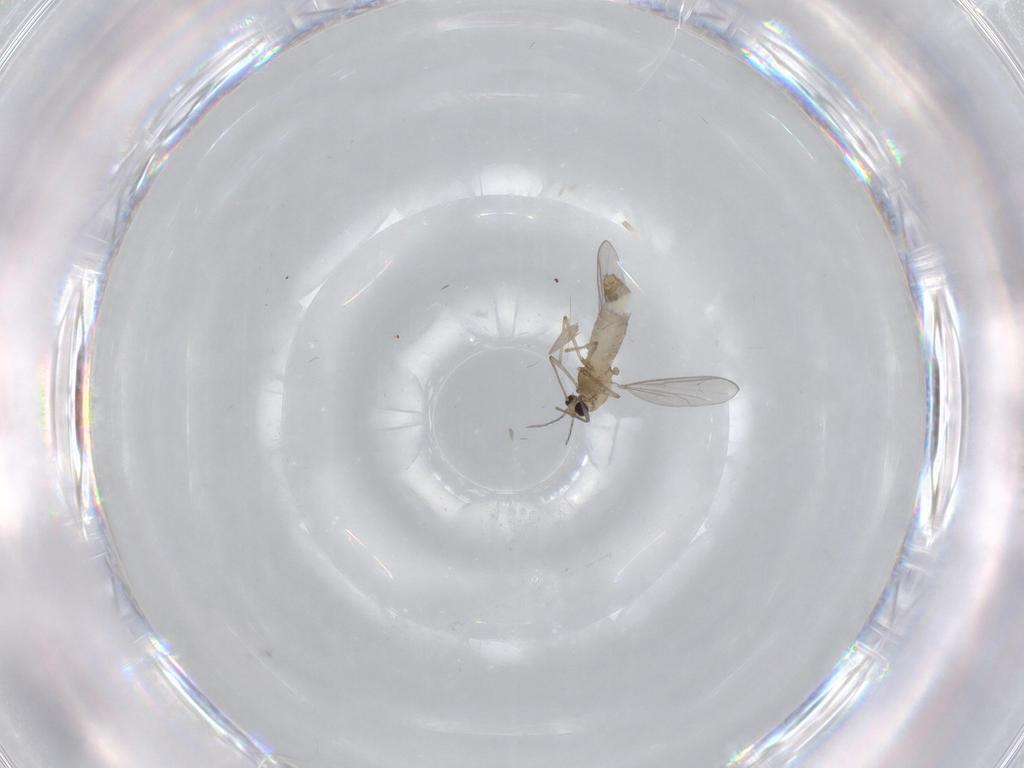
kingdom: Animalia
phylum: Arthropoda
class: Insecta
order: Diptera
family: Chironomidae
